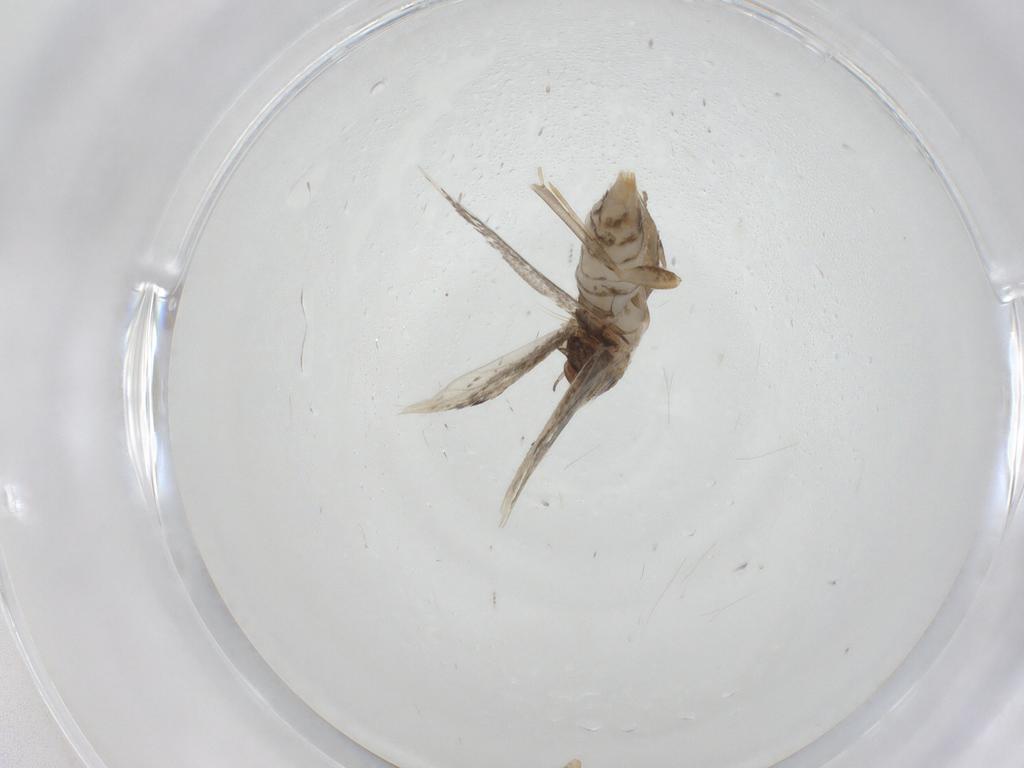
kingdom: Animalia
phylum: Arthropoda
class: Insecta
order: Lepidoptera
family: Elachistidae
